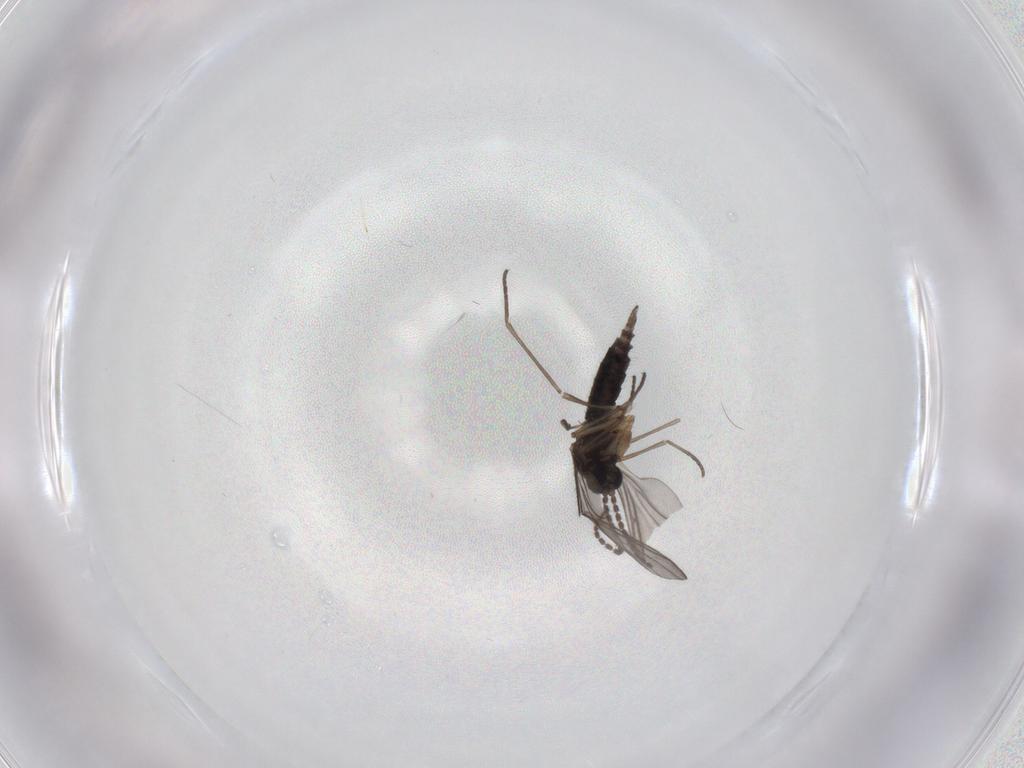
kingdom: Animalia
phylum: Arthropoda
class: Insecta
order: Diptera
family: Sciaridae
